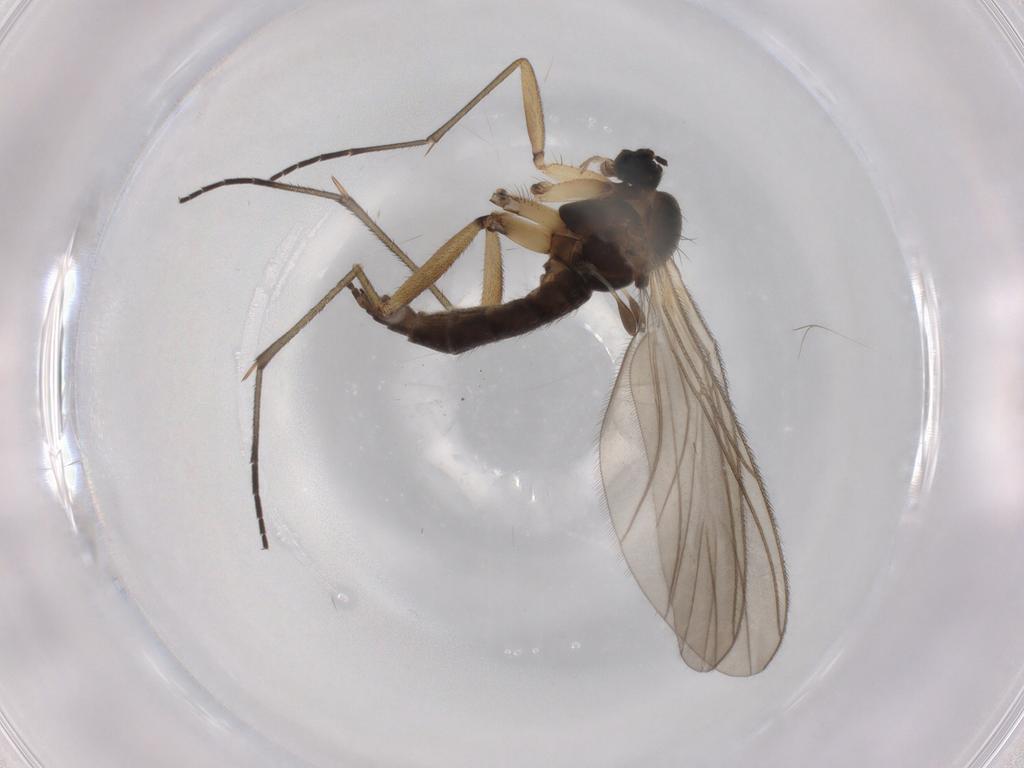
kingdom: Animalia
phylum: Arthropoda
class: Insecta
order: Diptera
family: Sciaridae
